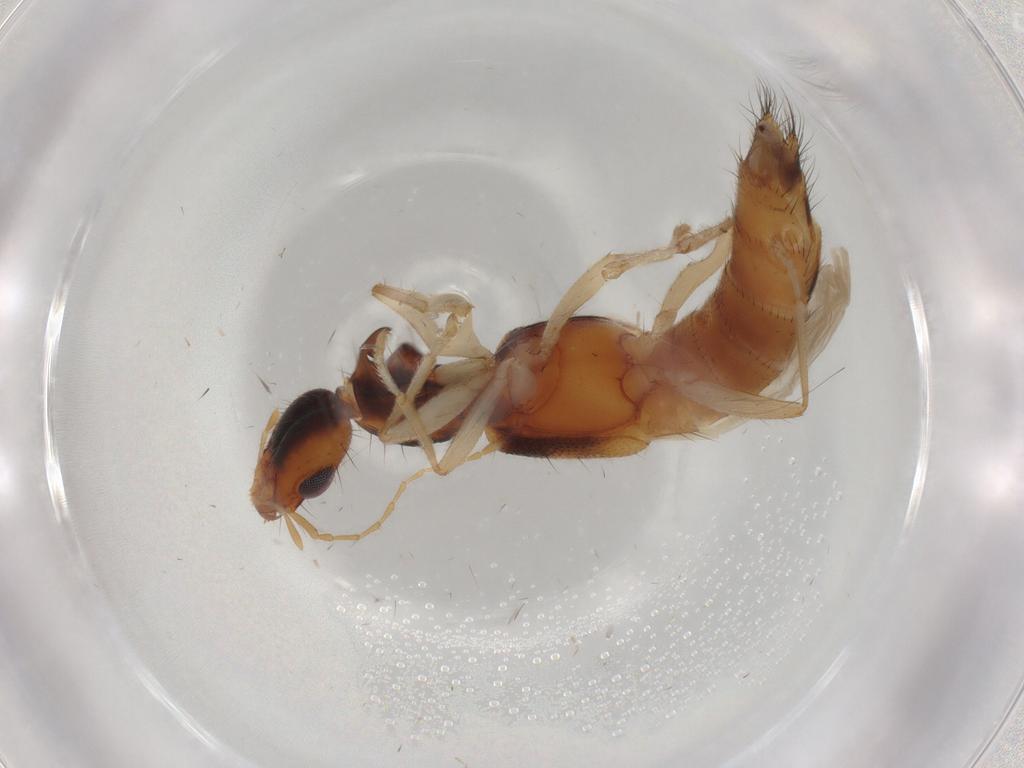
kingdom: Animalia
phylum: Arthropoda
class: Insecta
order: Coleoptera
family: Staphylinidae
